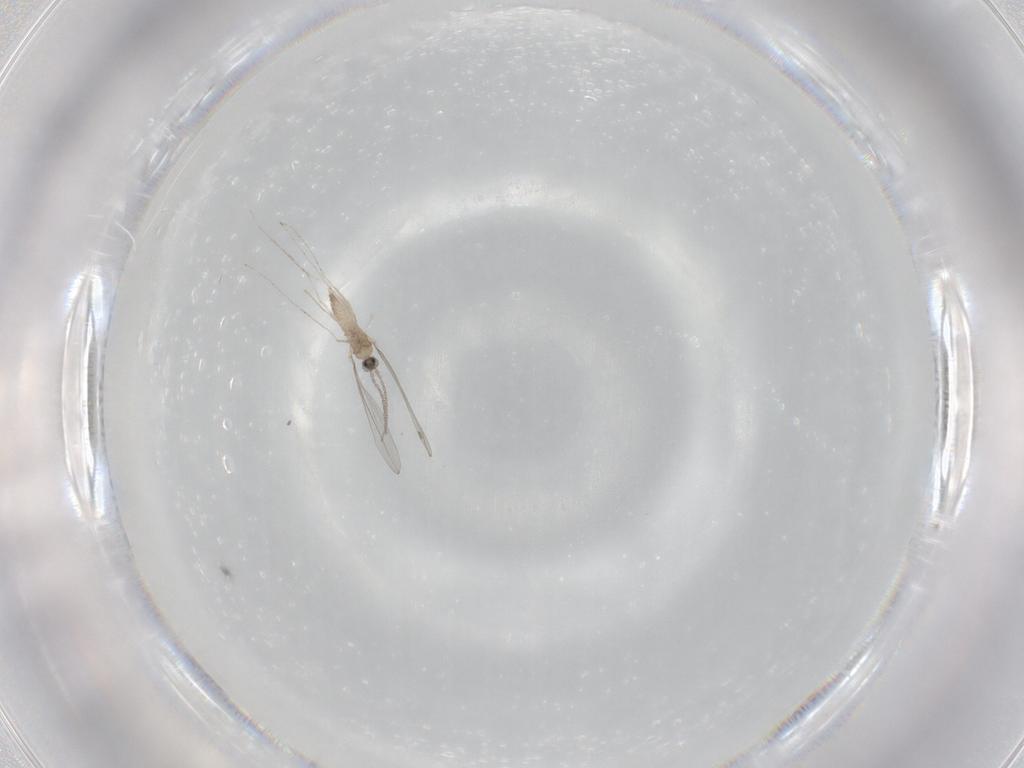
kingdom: Animalia
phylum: Arthropoda
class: Insecta
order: Diptera
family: Cecidomyiidae
